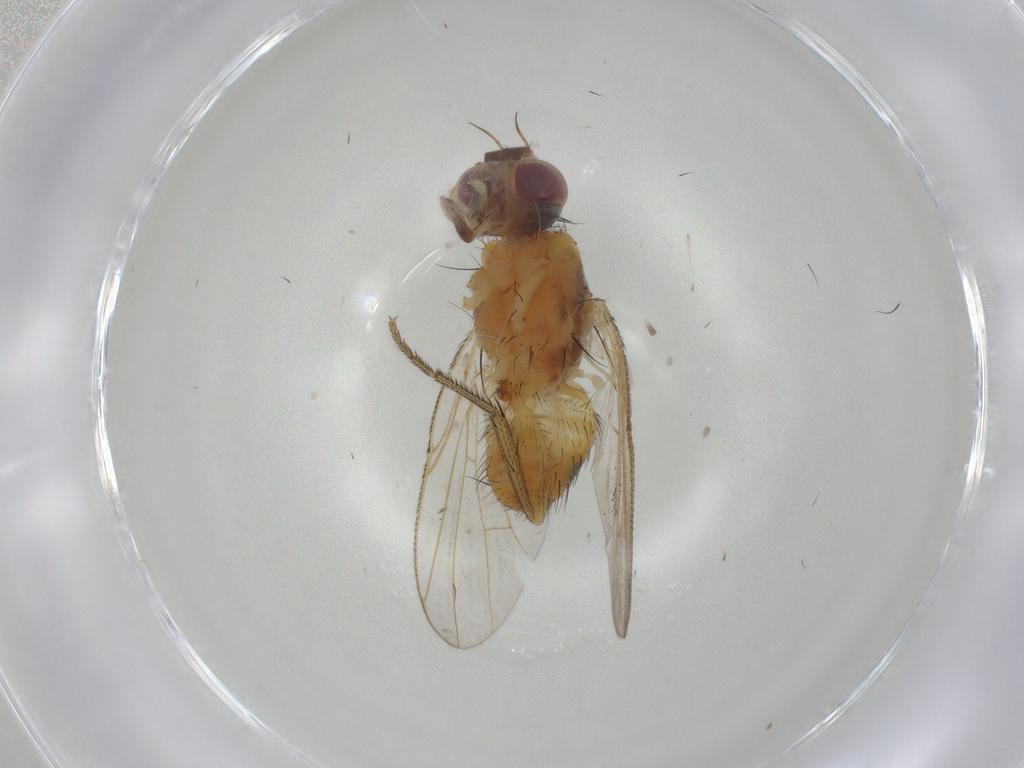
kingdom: Animalia
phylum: Arthropoda
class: Insecta
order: Diptera
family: Muscidae
